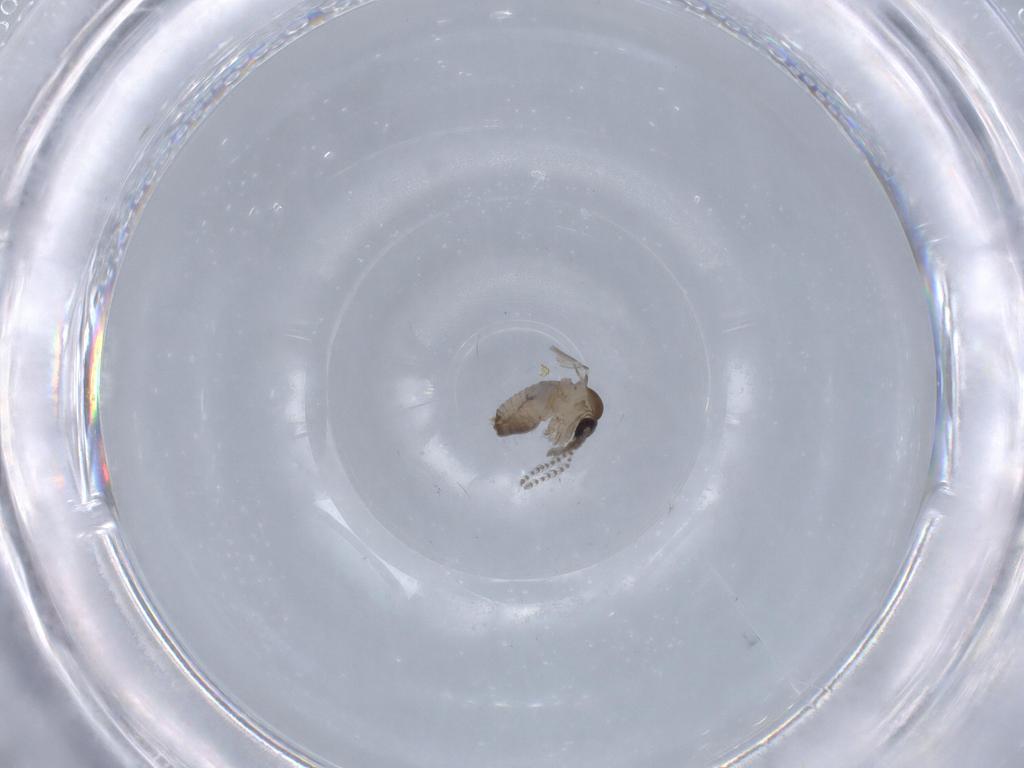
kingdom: Animalia
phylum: Arthropoda
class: Insecta
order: Diptera
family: Psychodidae
